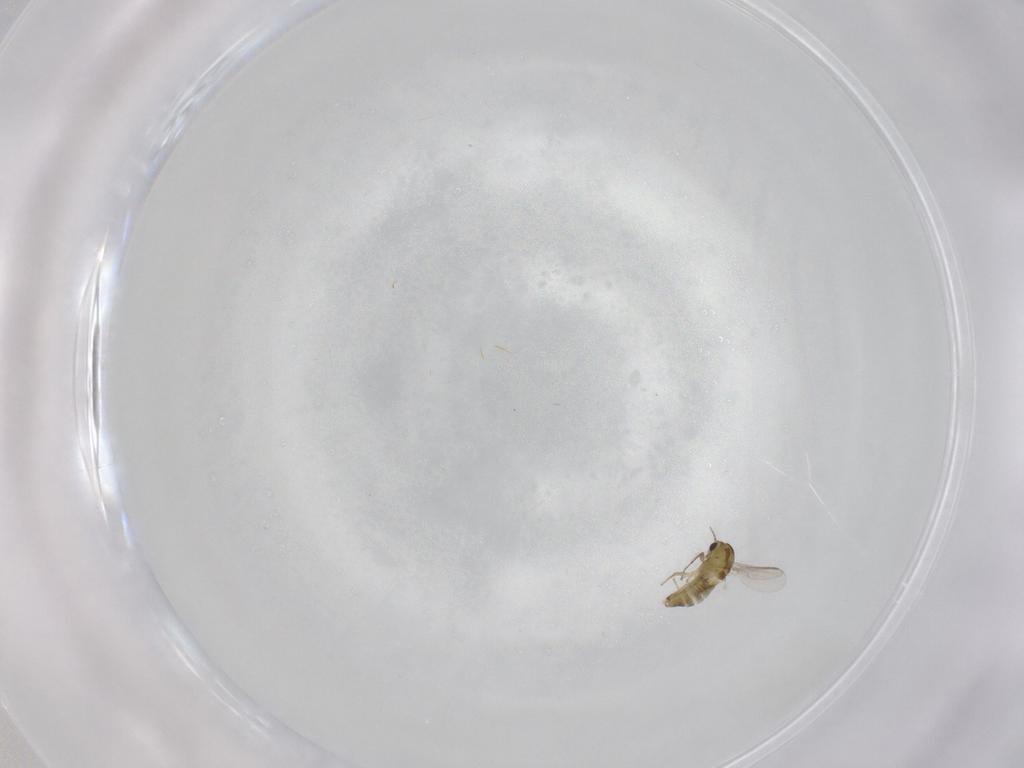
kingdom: Animalia
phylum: Arthropoda
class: Insecta
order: Diptera
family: Chironomidae
